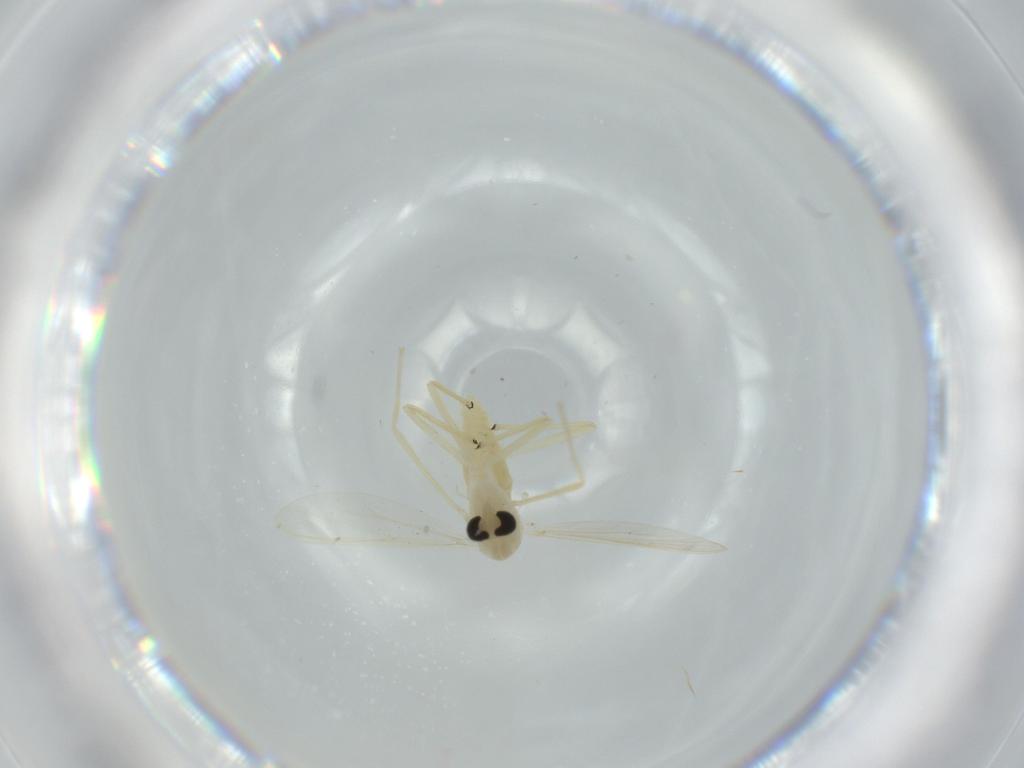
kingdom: Animalia
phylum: Arthropoda
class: Insecta
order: Diptera
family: Chironomidae
